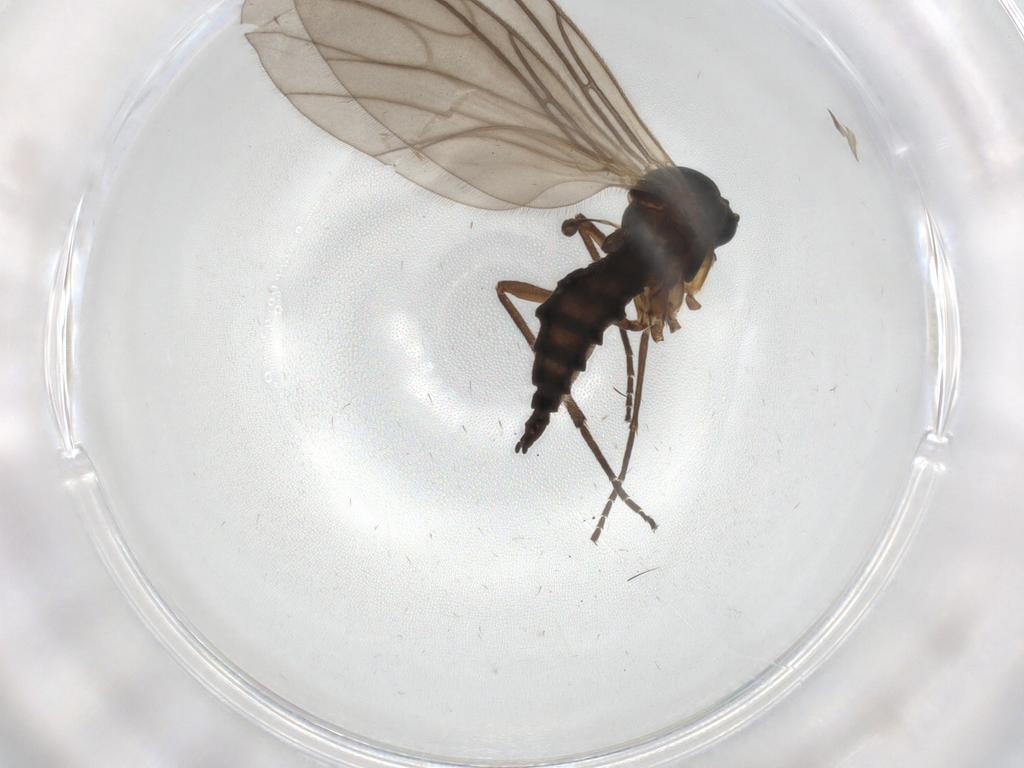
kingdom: Animalia
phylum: Arthropoda
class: Insecta
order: Diptera
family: Sciaridae
